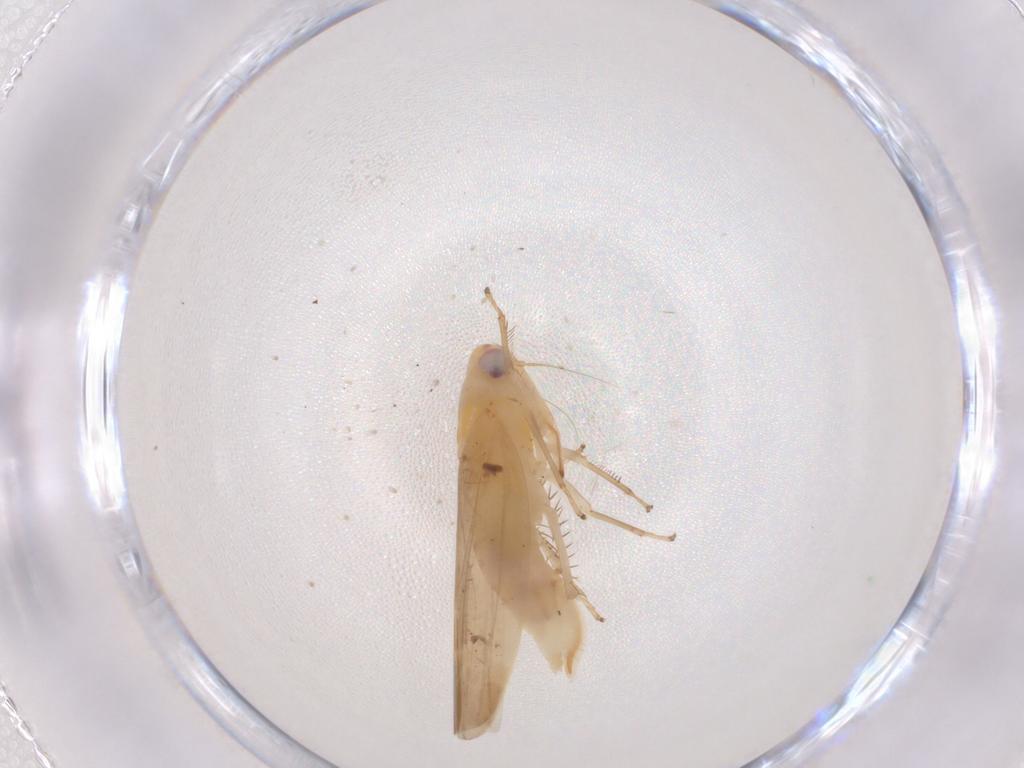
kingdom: Animalia
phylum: Arthropoda
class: Insecta
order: Hemiptera
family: Cicadellidae
